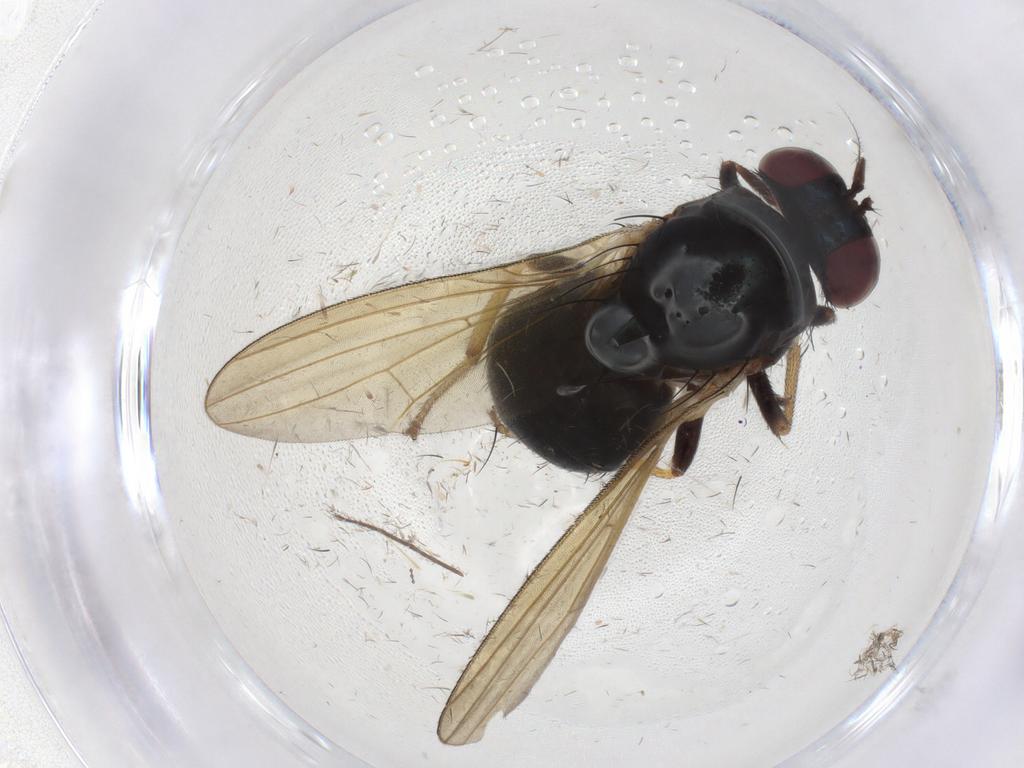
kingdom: Animalia
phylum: Arthropoda
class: Insecta
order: Diptera
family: Chironomidae
